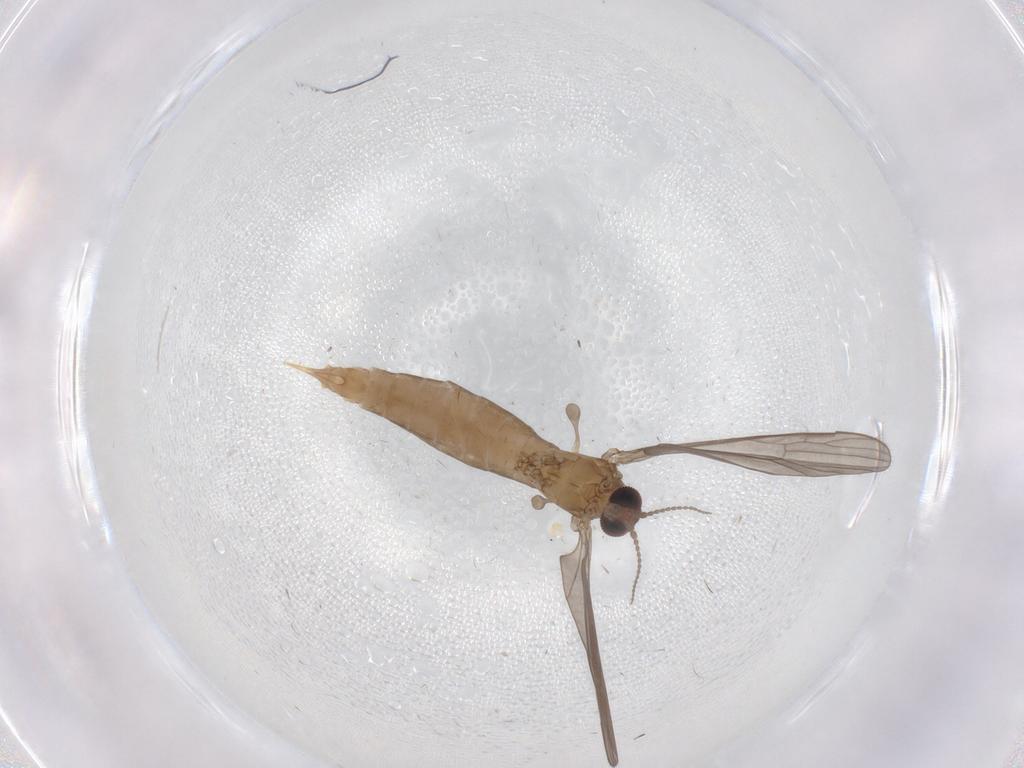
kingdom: Animalia
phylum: Arthropoda
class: Insecta
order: Diptera
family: Limoniidae
